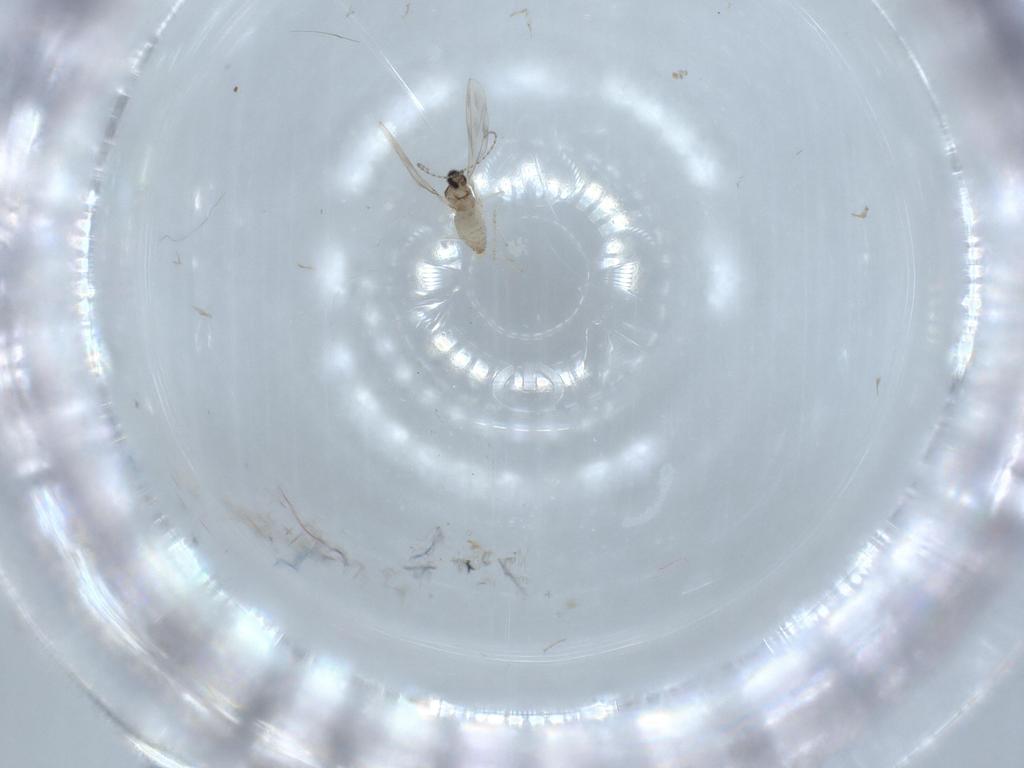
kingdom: Animalia
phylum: Arthropoda
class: Insecta
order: Diptera
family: Cecidomyiidae
